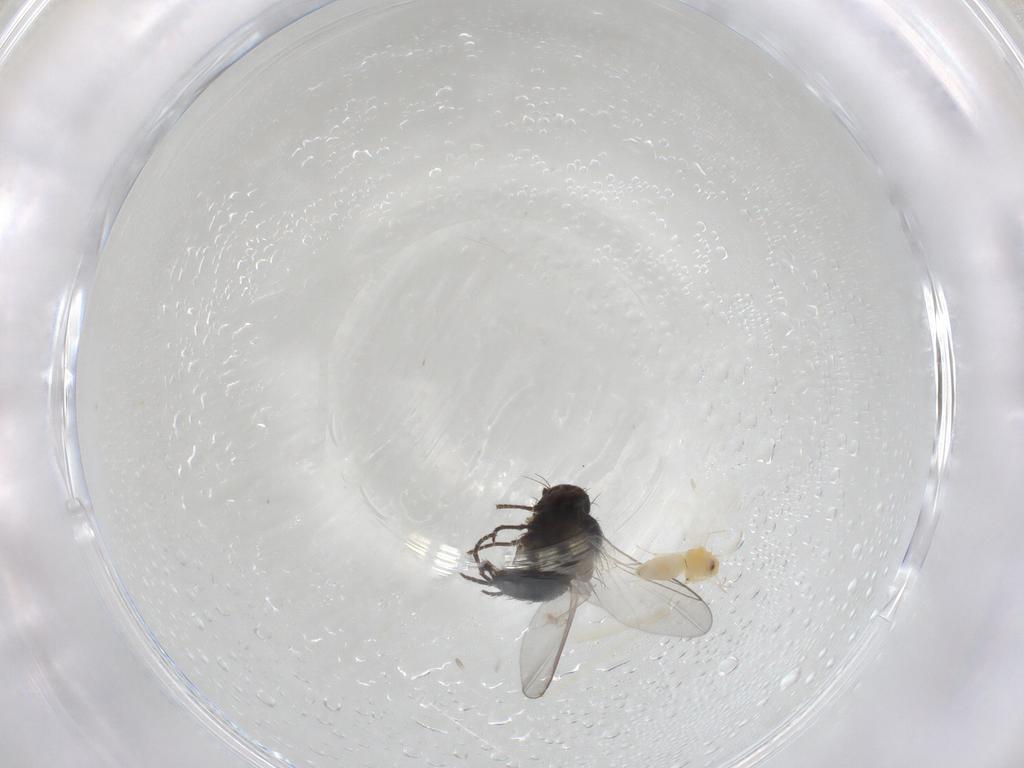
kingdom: Animalia
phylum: Arthropoda
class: Insecta
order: Diptera
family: Agromyzidae
